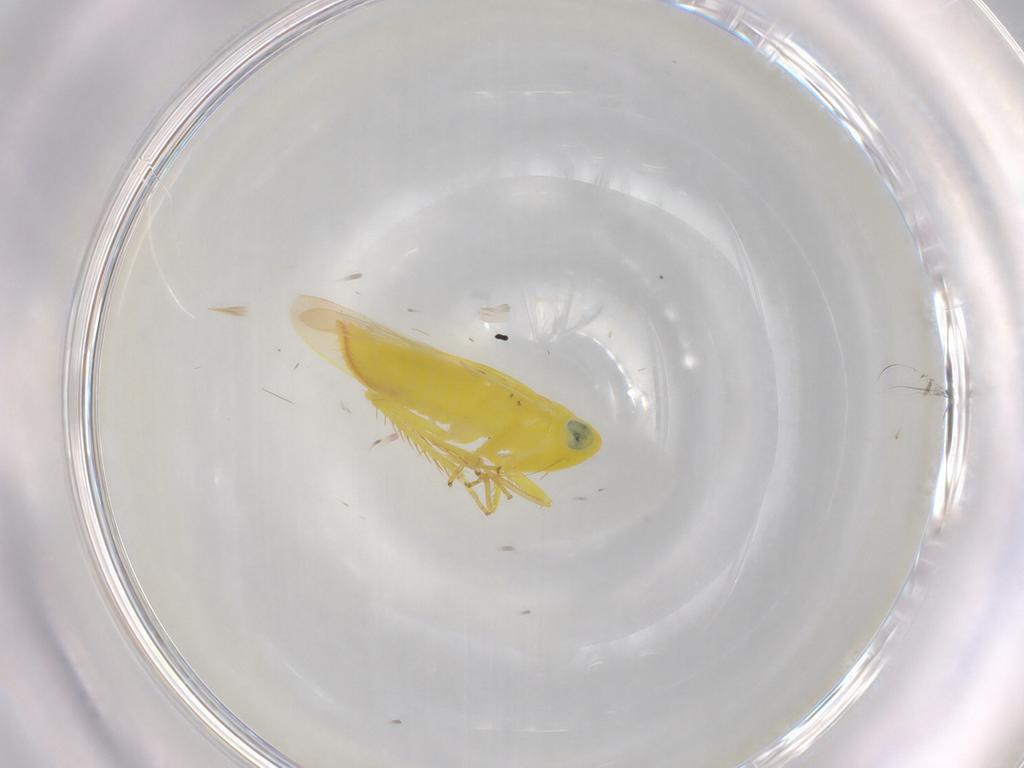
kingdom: Animalia
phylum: Arthropoda
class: Insecta
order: Hemiptera
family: Cicadellidae
